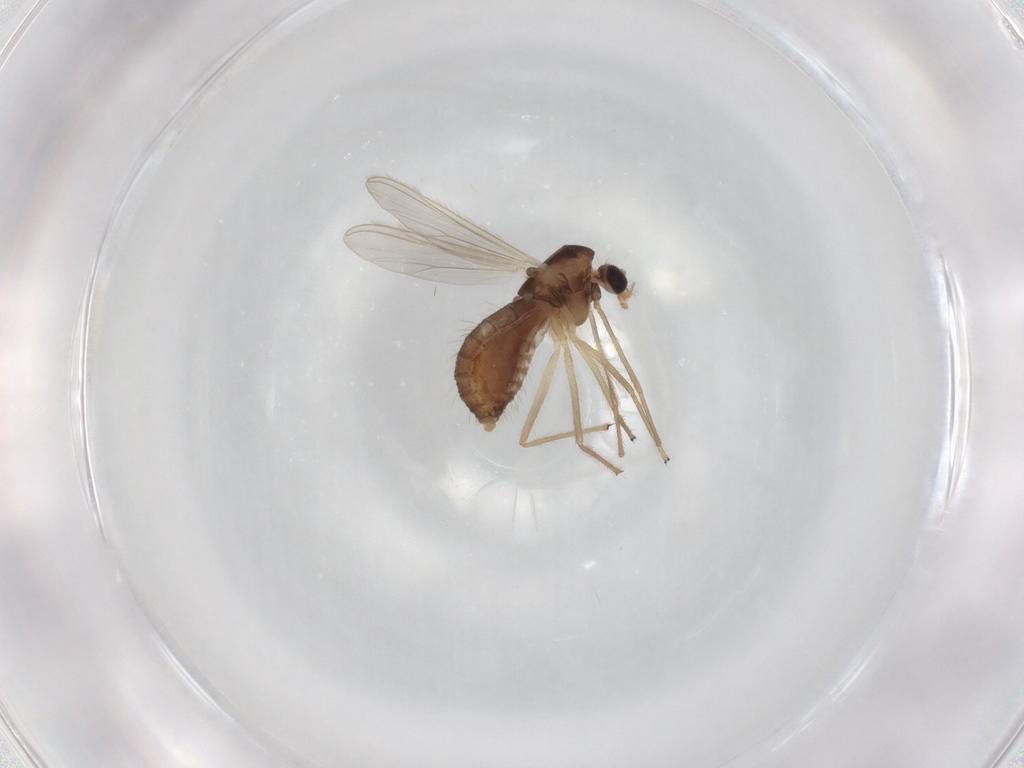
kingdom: Animalia
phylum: Arthropoda
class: Insecta
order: Diptera
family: Chironomidae
